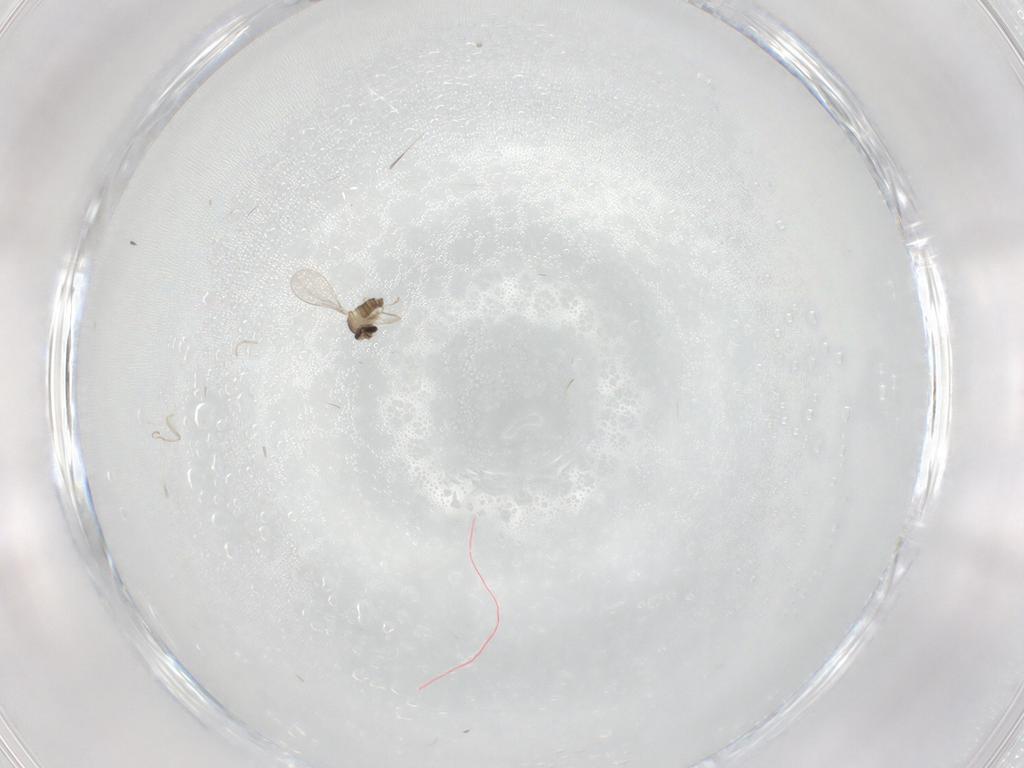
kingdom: Animalia
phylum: Arthropoda
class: Insecta
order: Diptera
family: Cecidomyiidae
